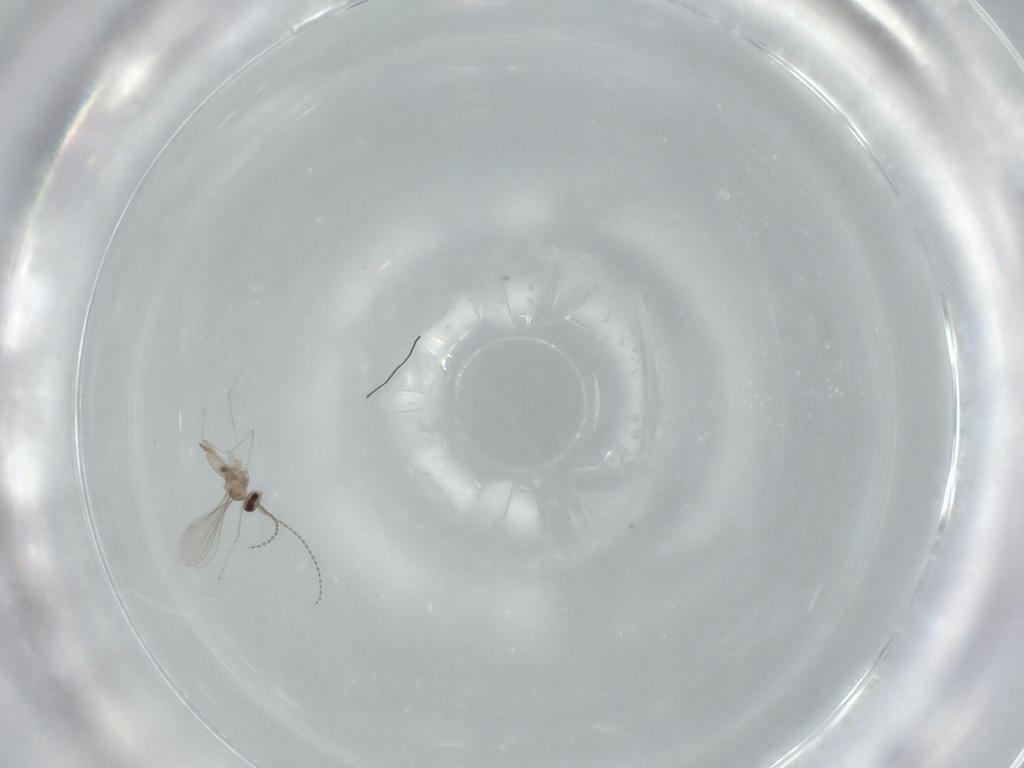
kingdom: Animalia
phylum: Arthropoda
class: Insecta
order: Diptera
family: Cecidomyiidae
